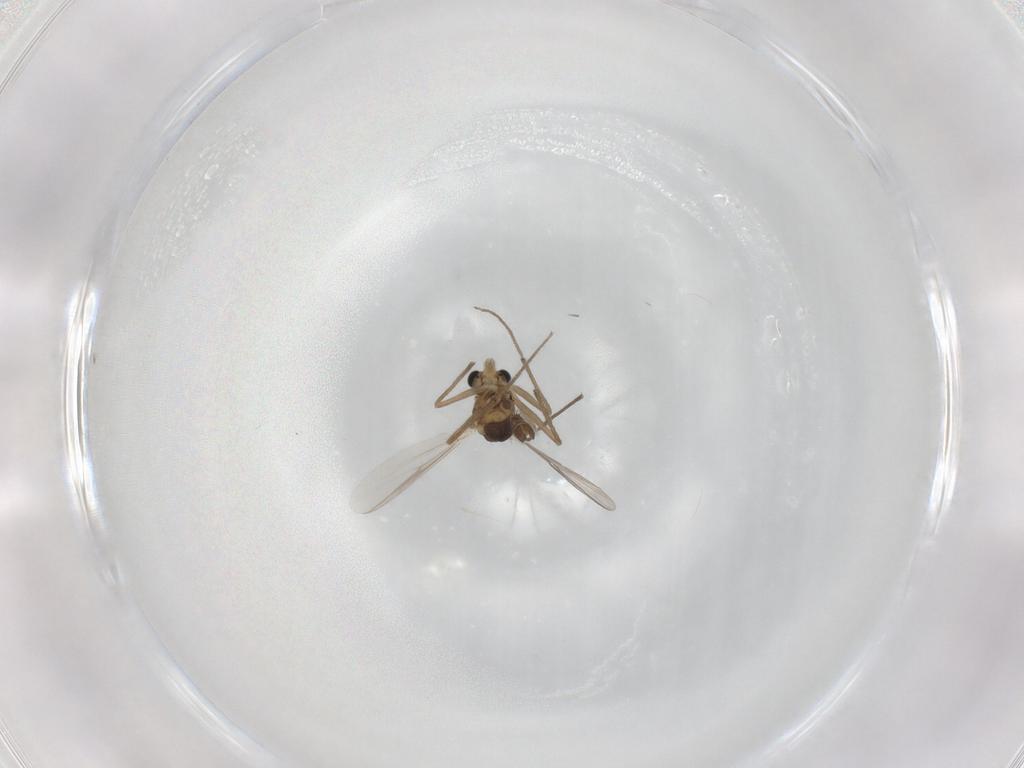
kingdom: Animalia
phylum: Arthropoda
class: Insecta
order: Diptera
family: Chironomidae
